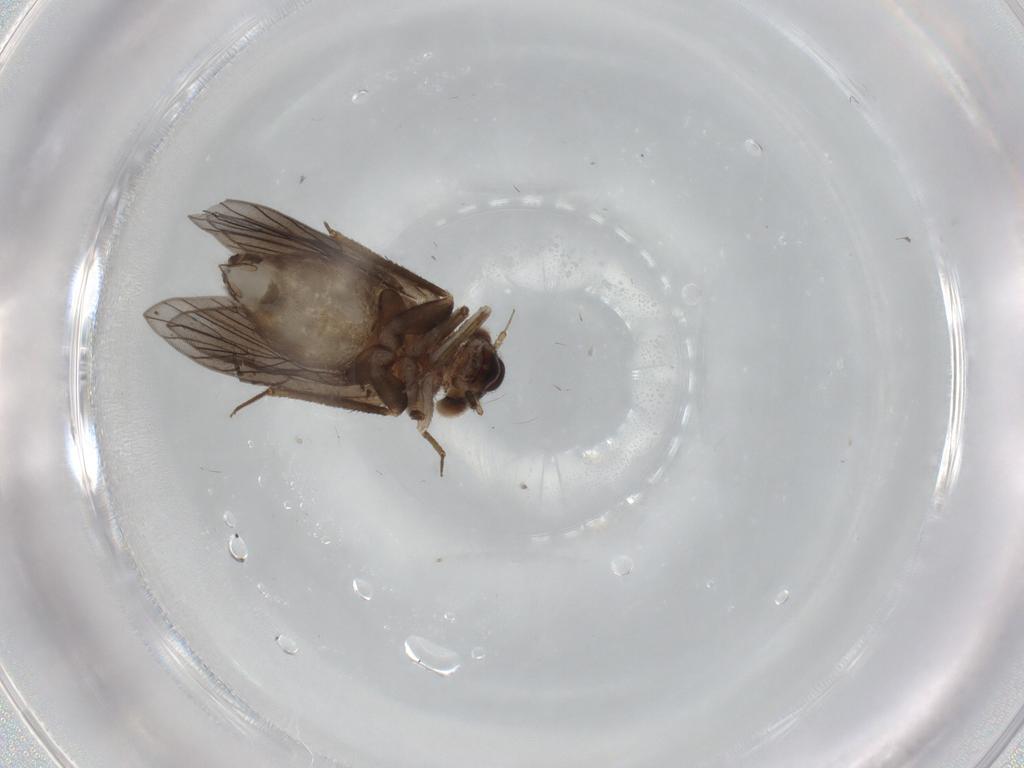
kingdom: Animalia
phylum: Arthropoda
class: Insecta
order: Psocodea
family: Lepidopsocidae
